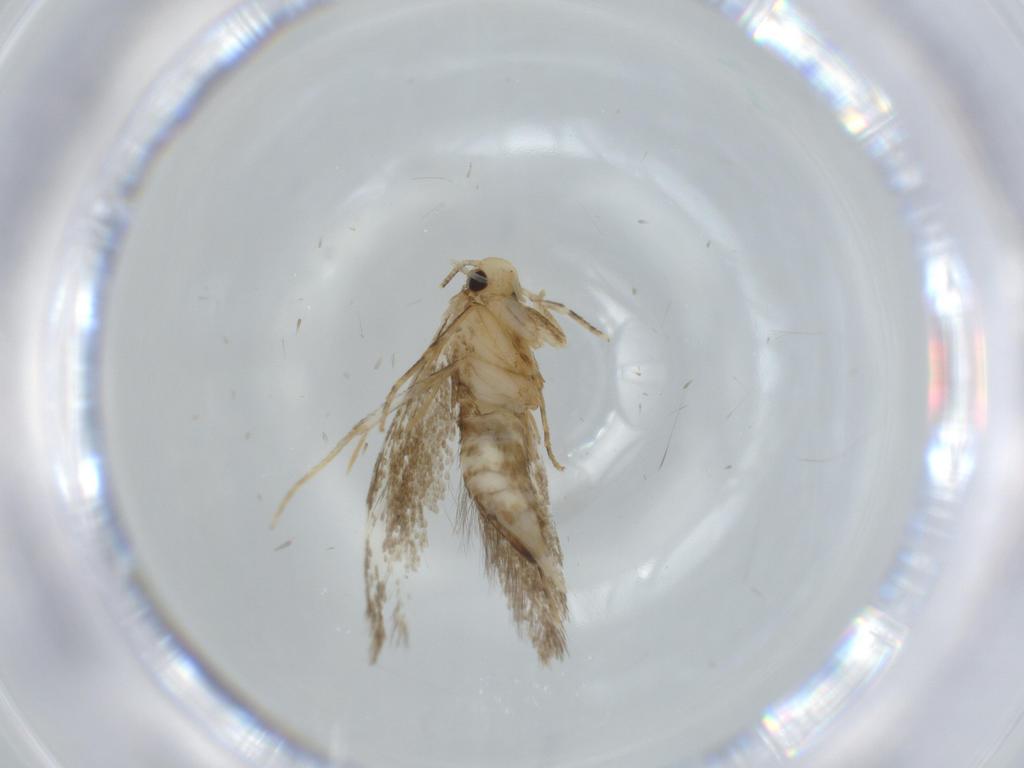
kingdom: Animalia
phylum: Arthropoda
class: Insecta
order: Lepidoptera
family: Tineidae
